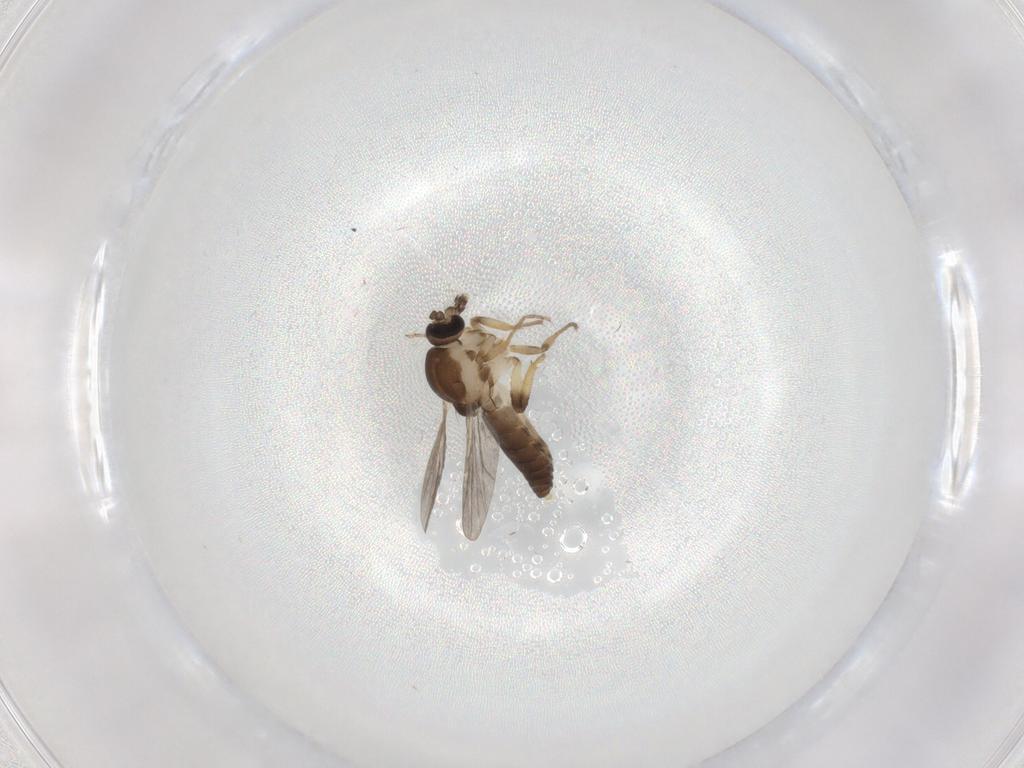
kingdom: Animalia
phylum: Arthropoda
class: Insecta
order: Diptera
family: Ceratopogonidae
